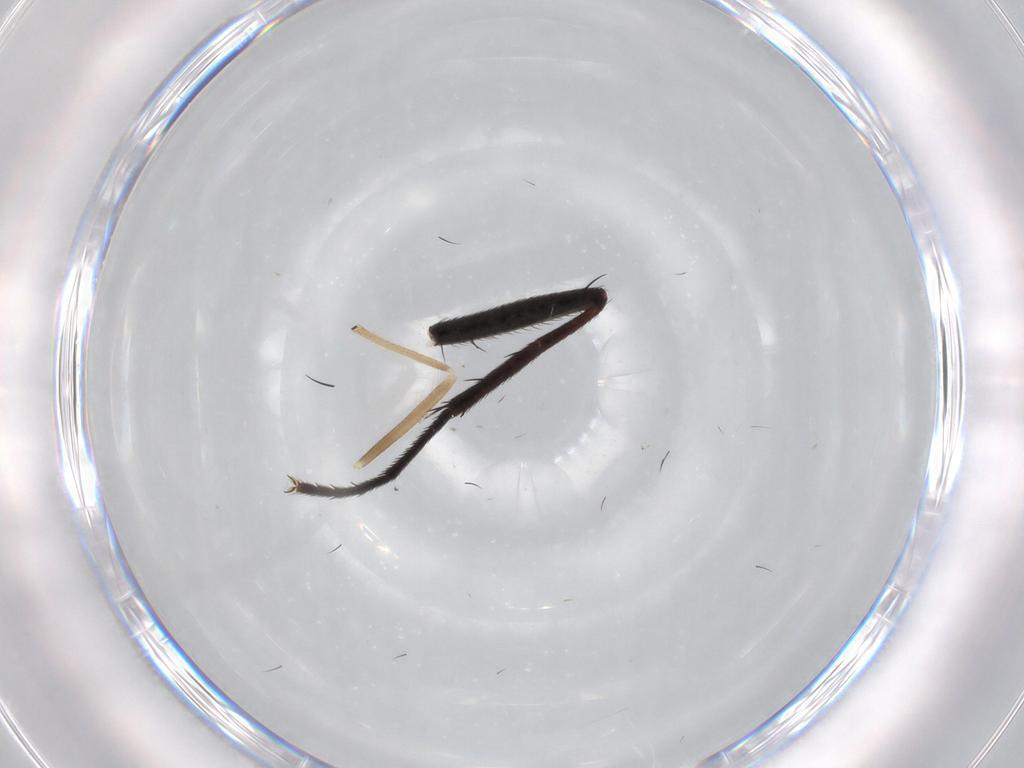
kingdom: Animalia
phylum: Arthropoda
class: Insecta
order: Diptera
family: Anthomyiidae
